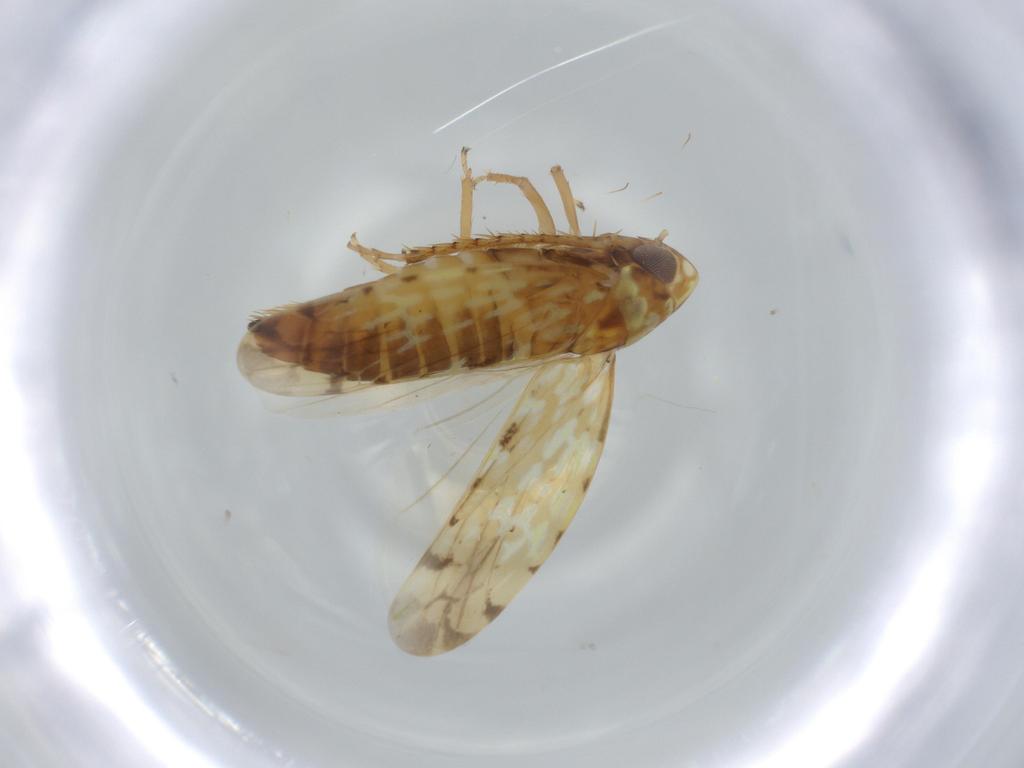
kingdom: Animalia
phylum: Arthropoda
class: Insecta
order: Hemiptera
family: Cicadellidae
